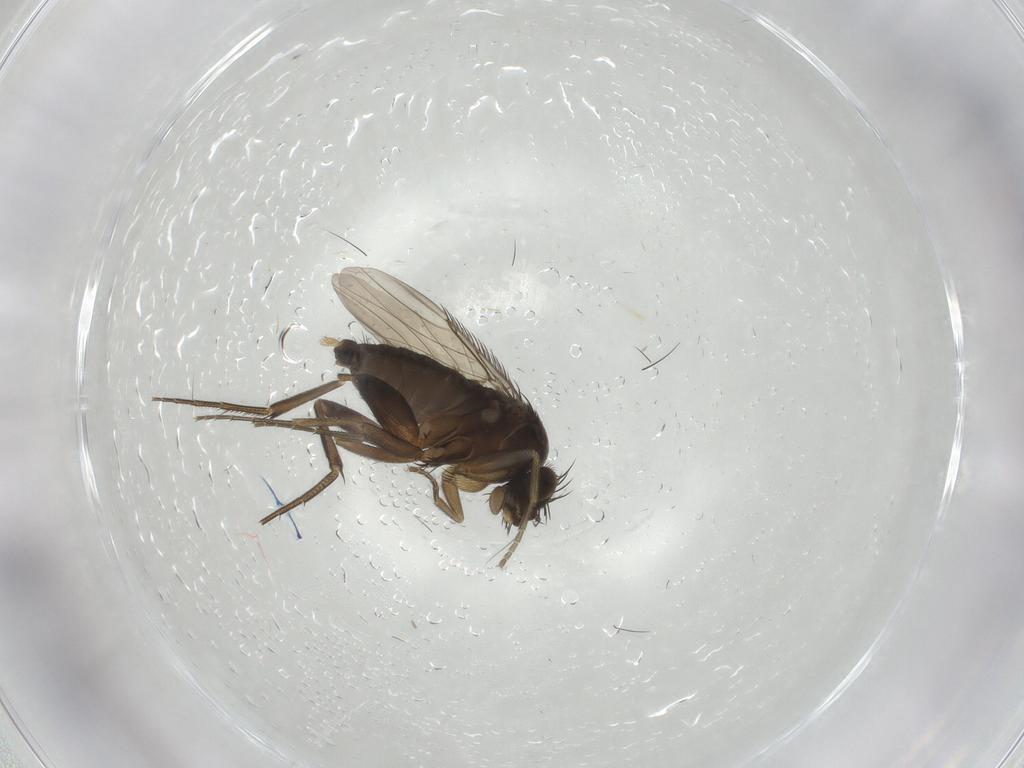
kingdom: Animalia
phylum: Arthropoda
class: Insecta
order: Diptera
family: Phoridae
